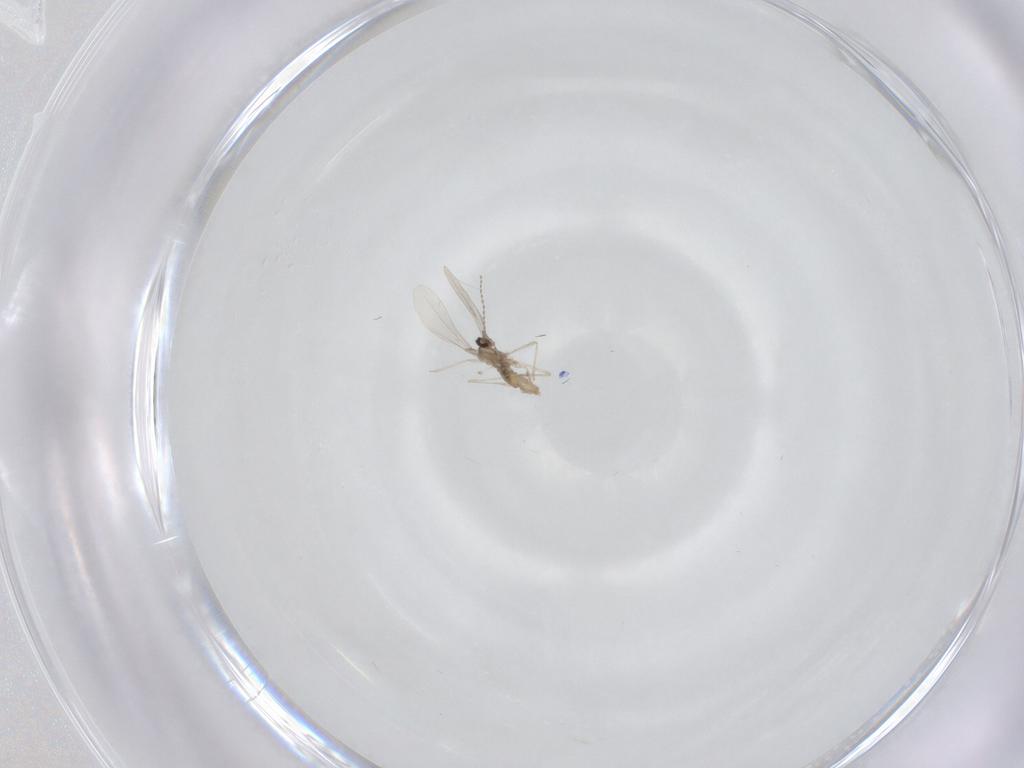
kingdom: Animalia
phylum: Arthropoda
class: Insecta
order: Diptera
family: Cecidomyiidae
